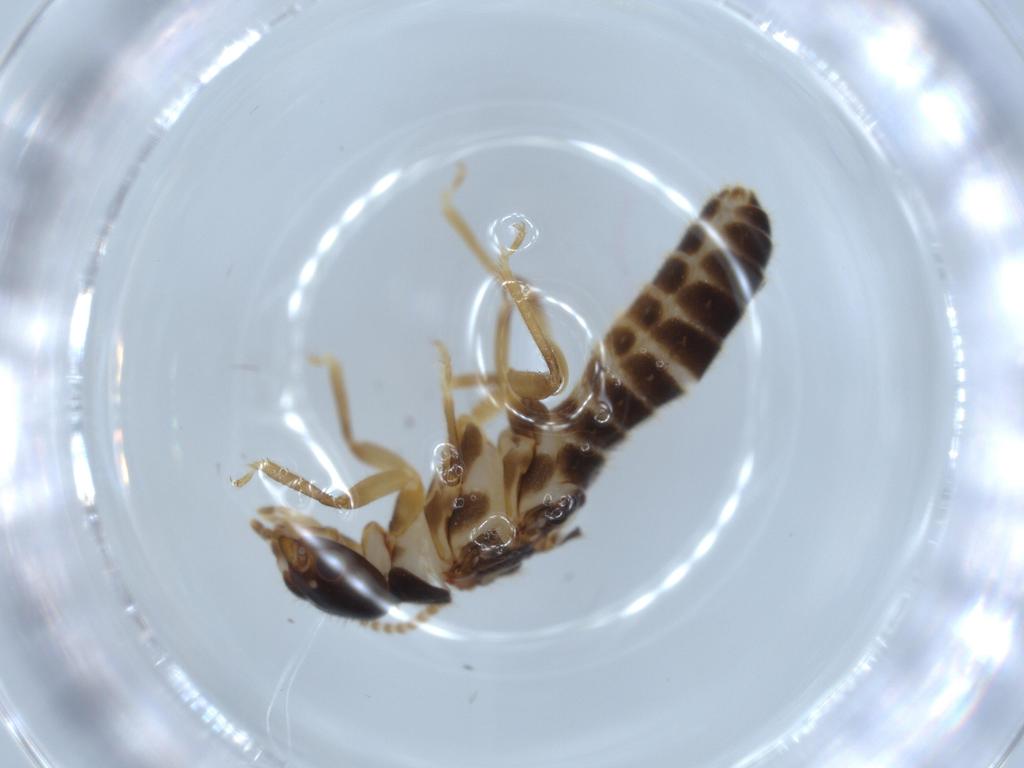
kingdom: Animalia
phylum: Arthropoda
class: Insecta
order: Blattodea
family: Termitidae
